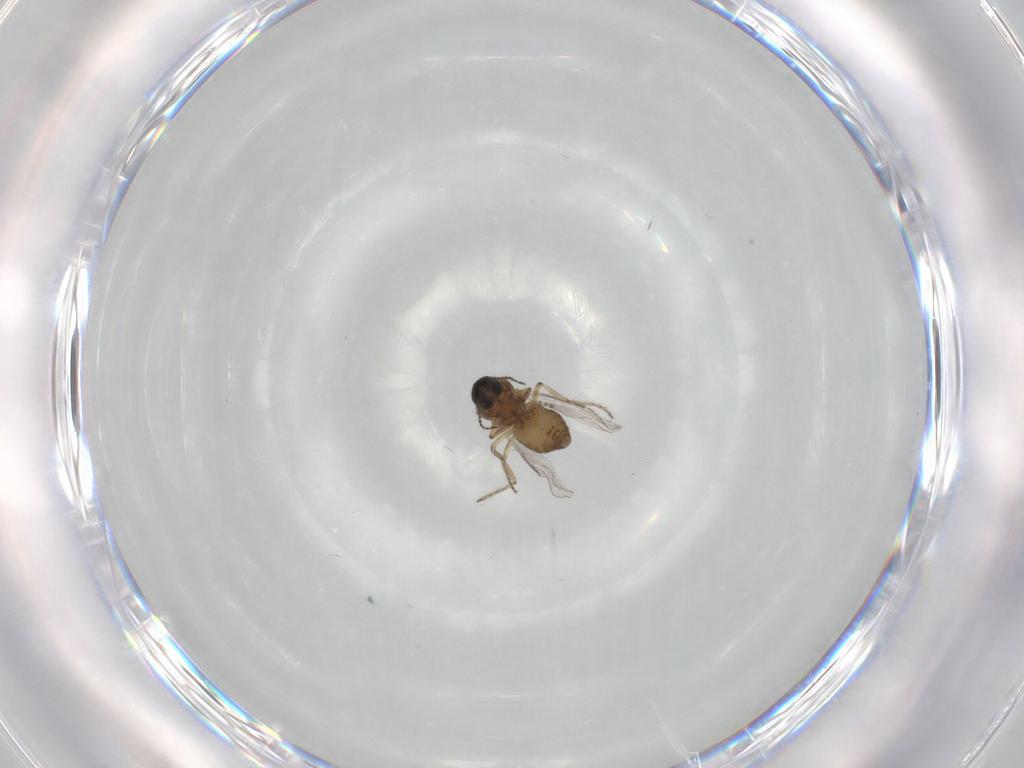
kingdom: Animalia
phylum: Arthropoda
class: Insecta
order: Diptera
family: Ceratopogonidae
